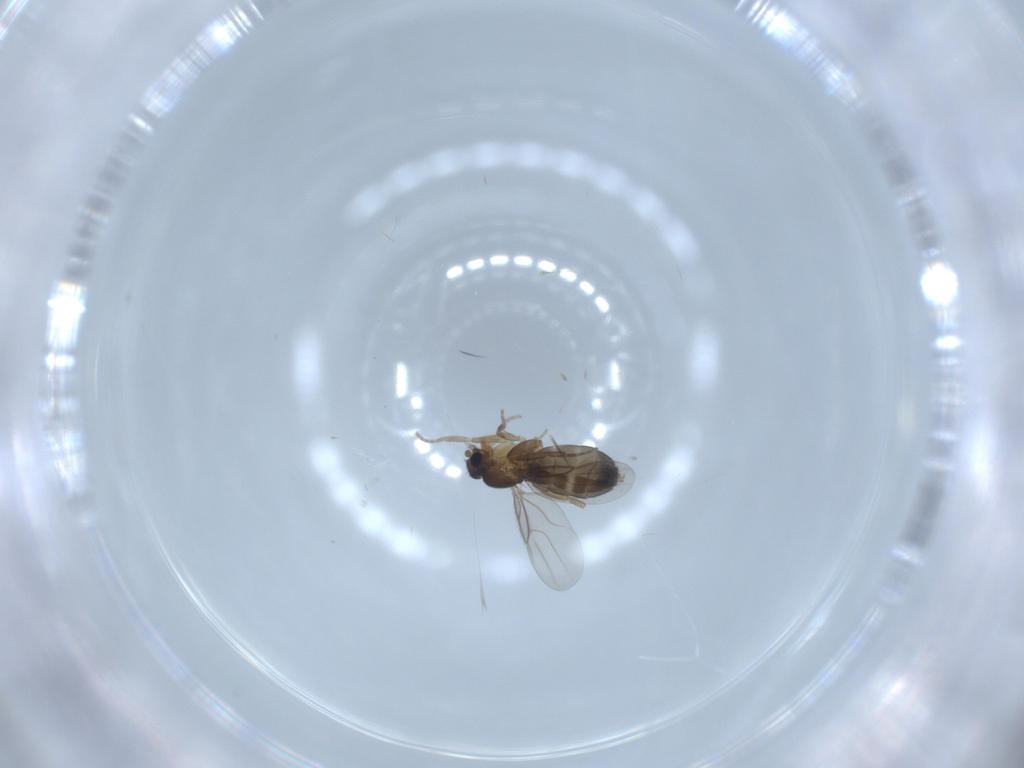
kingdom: Animalia
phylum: Arthropoda
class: Insecta
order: Diptera
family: Phoridae
